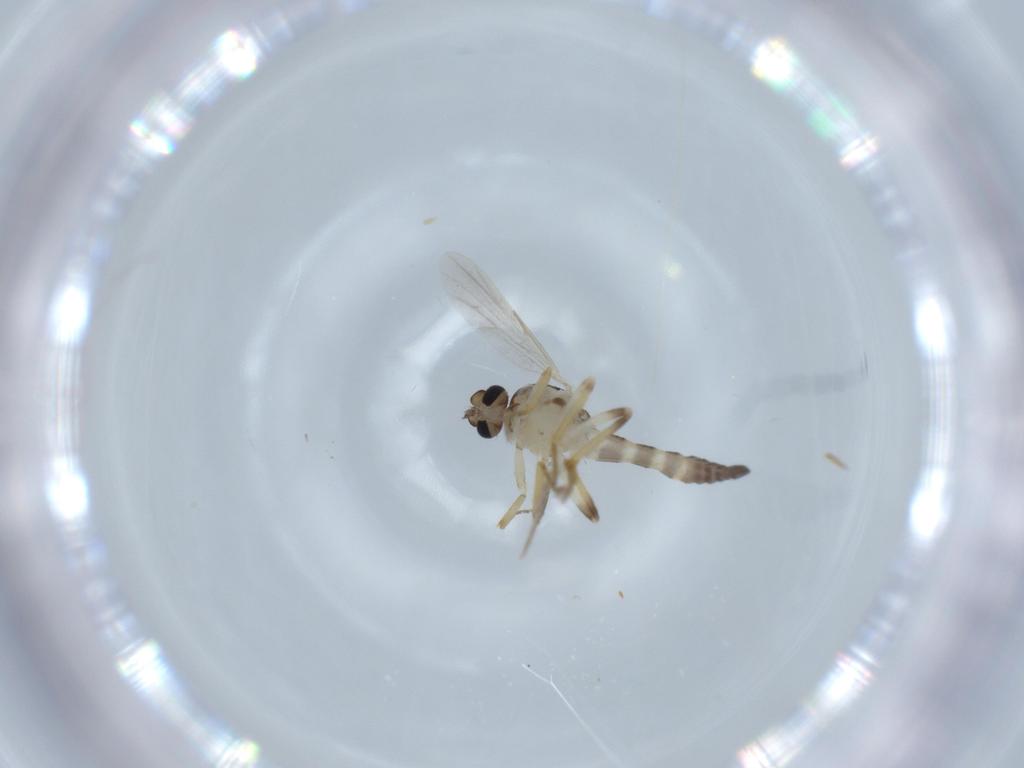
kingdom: Animalia
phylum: Arthropoda
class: Insecta
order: Diptera
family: Sciaridae
